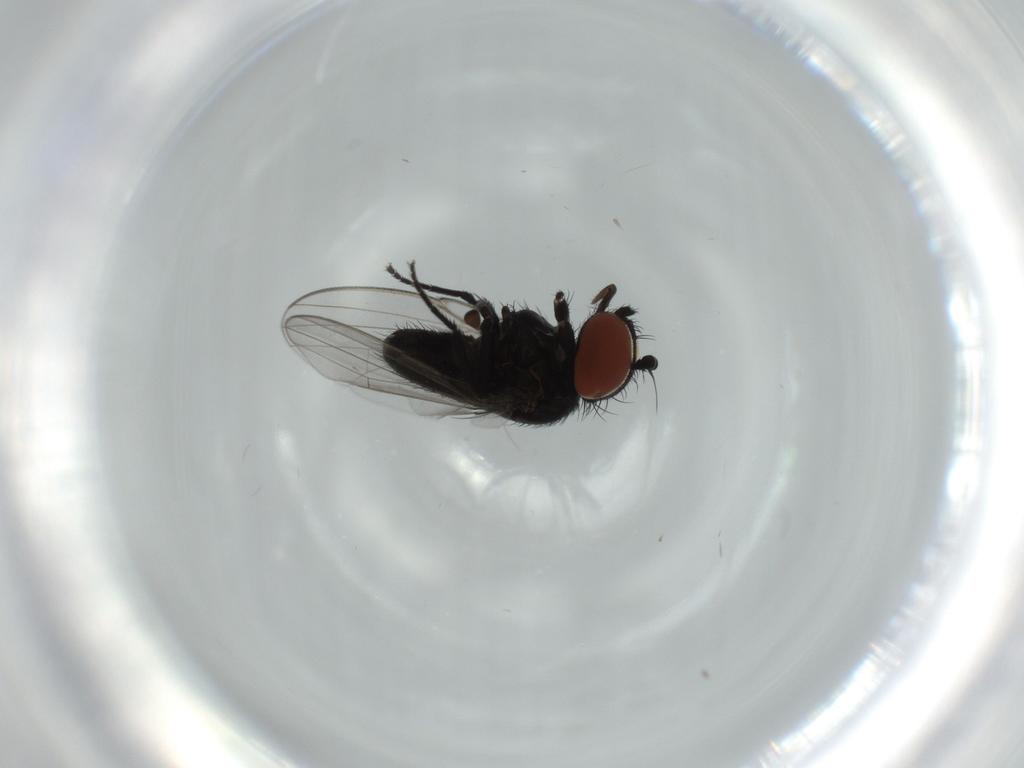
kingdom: Animalia
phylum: Arthropoda
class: Insecta
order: Diptera
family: Milichiidae
